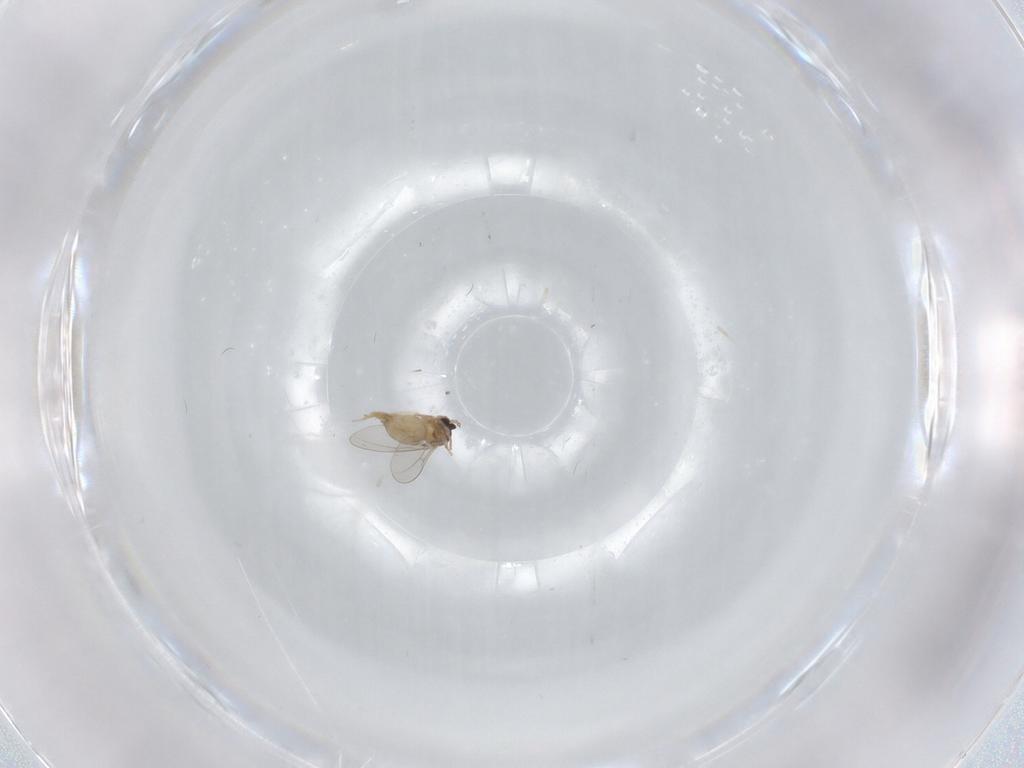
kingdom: Animalia
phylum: Arthropoda
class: Insecta
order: Diptera
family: Cecidomyiidae
